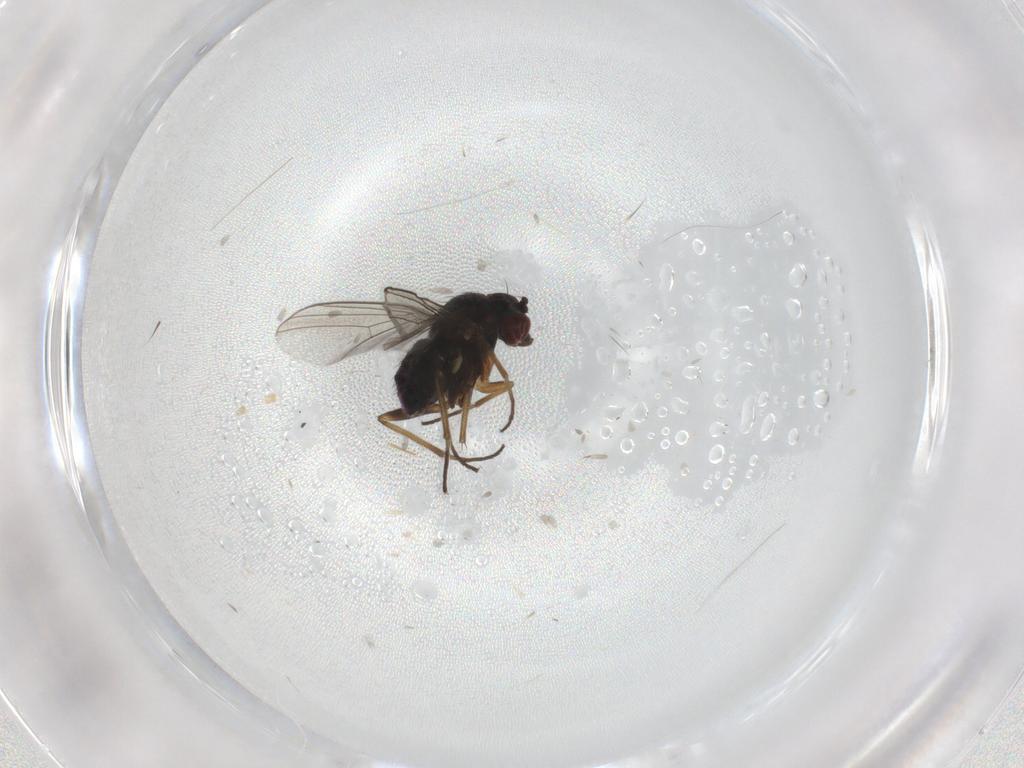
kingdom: Animalia
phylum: Arthropoda
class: Insecta
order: Diptera
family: Dolichopodidae
